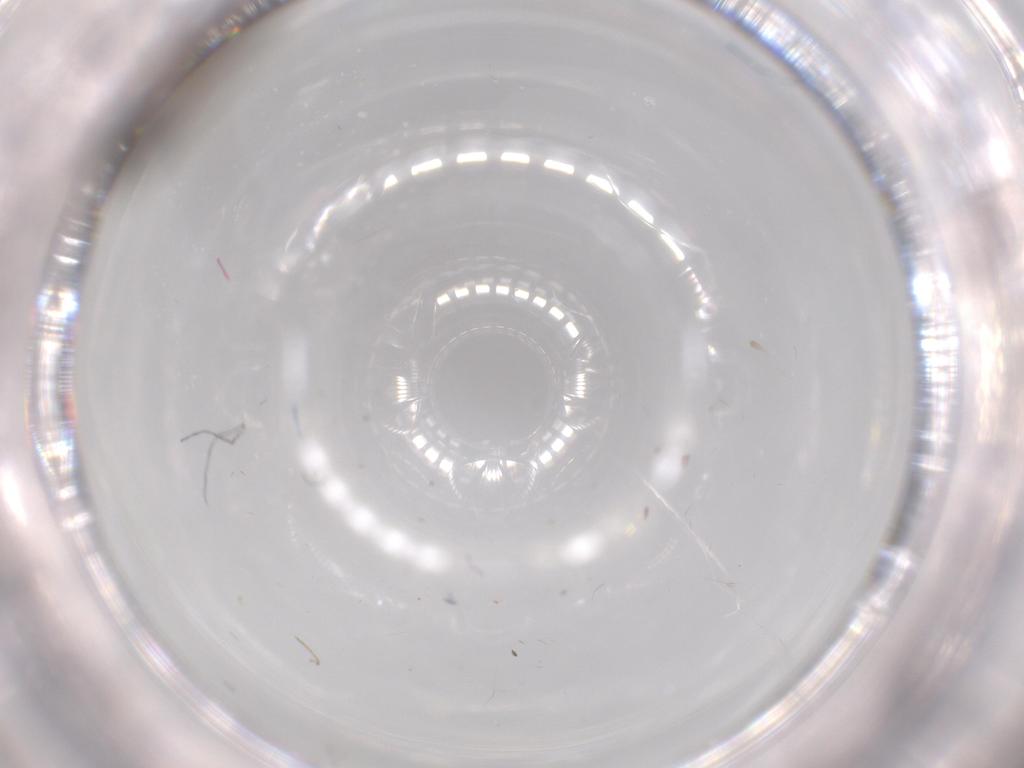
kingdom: Animalia
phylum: Arthropoda
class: Insecta
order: Diptera
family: Sciaridae
